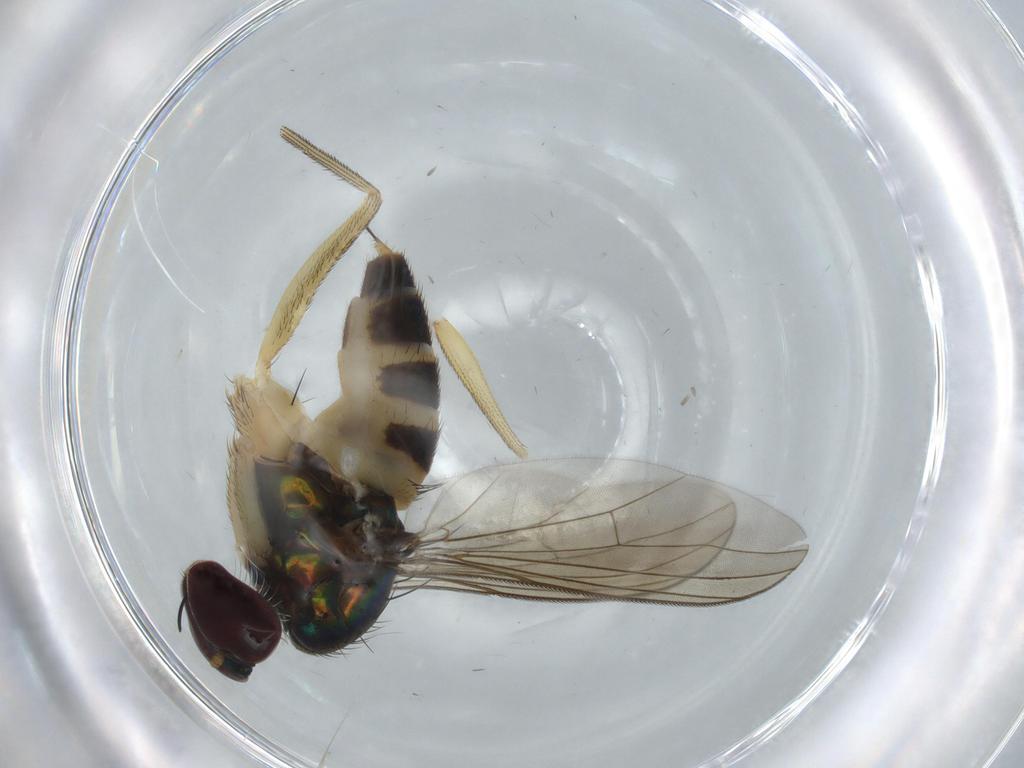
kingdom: Animalia
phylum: Arthropoda
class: Insecta
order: Diptera
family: Dolichopodidae
